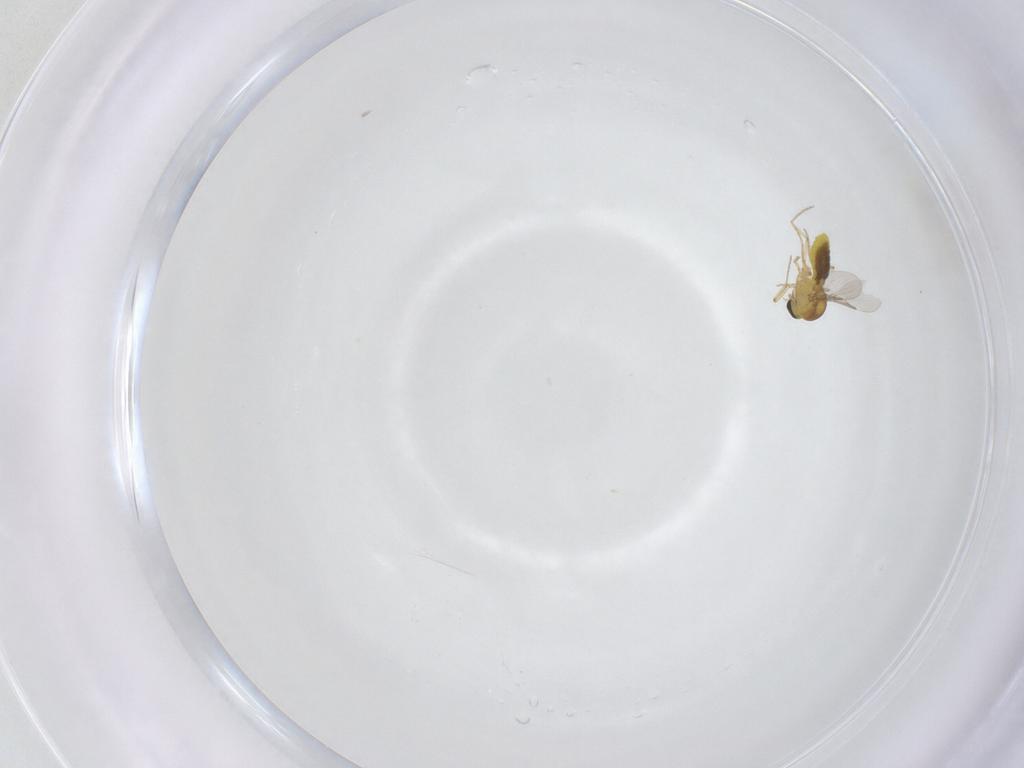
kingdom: Animalia
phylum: Arthropoda
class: Insecta
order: Diptera
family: Ceratopogonidae
